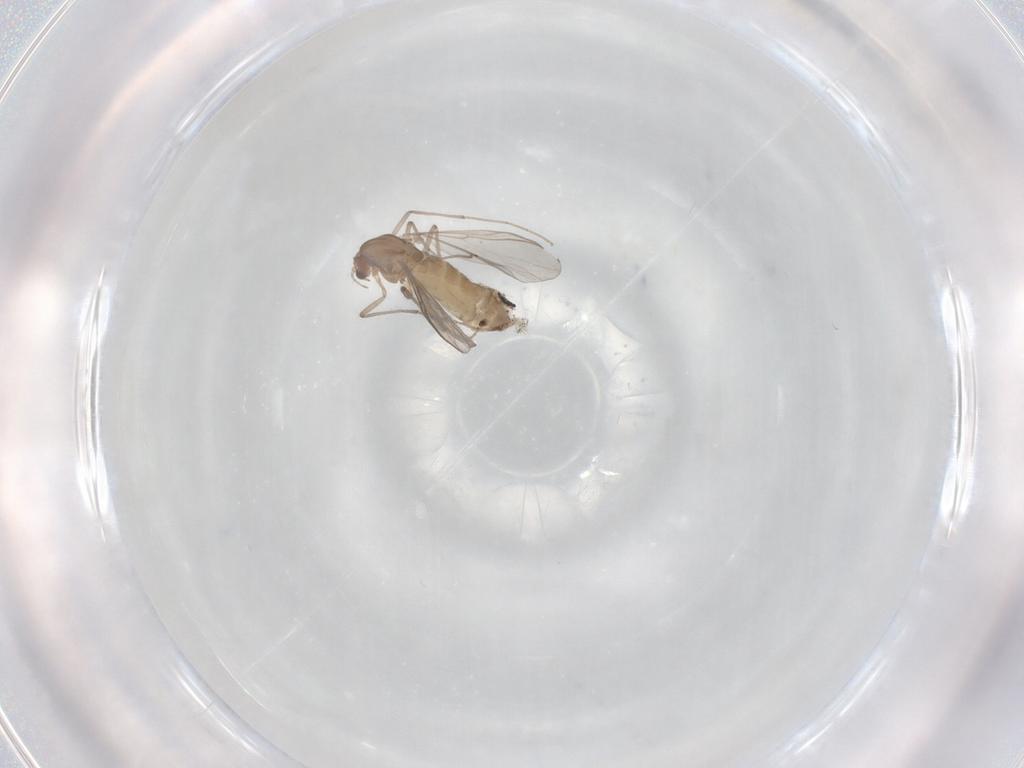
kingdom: Animalia
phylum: Arthropoda
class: Insecta
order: Diptera
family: Chironomidae
